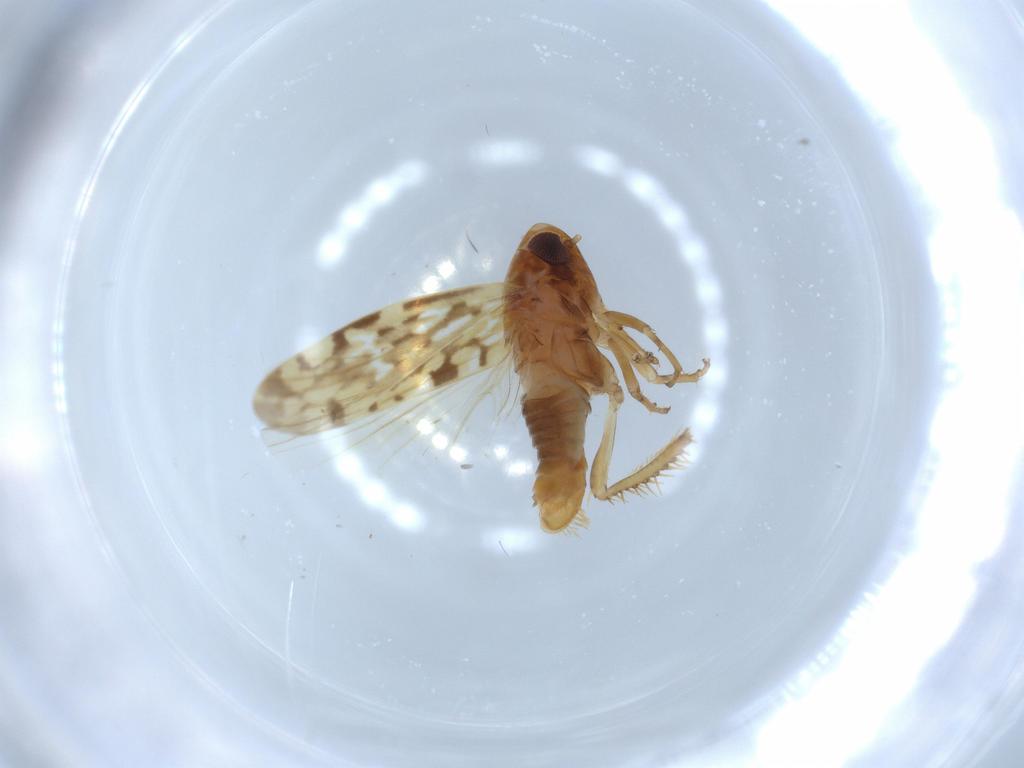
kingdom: Animalia
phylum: Arthropoda
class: Insecta
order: Hemiptera
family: Cicadellidae
